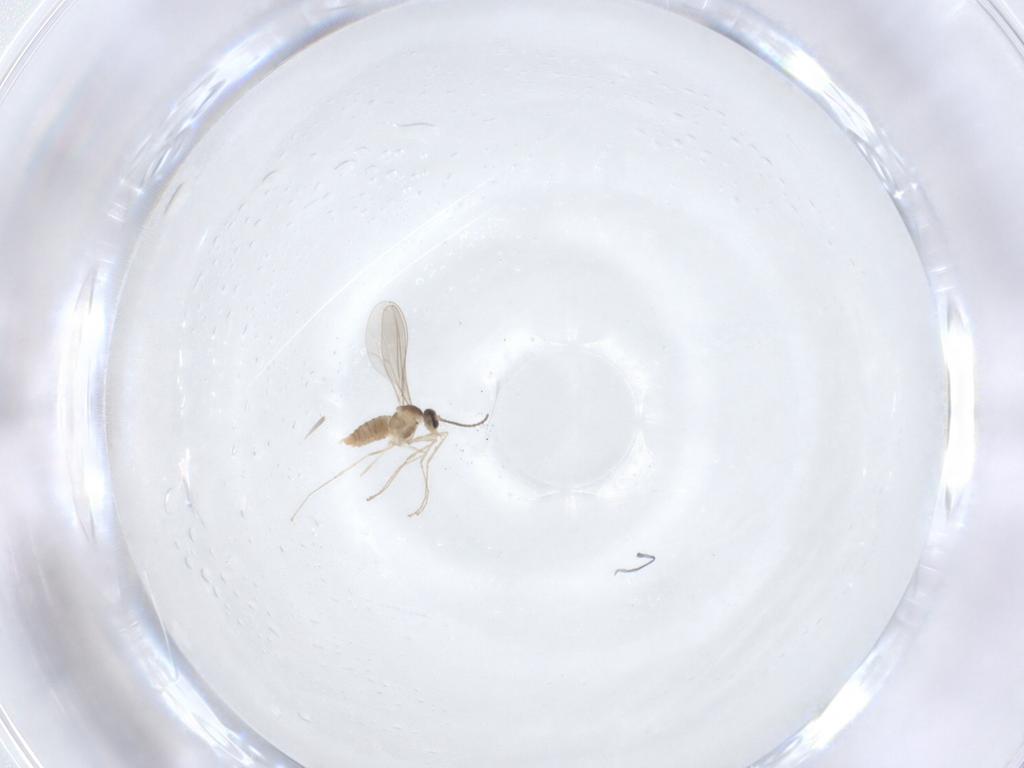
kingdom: Animalia
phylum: Arthropoda
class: Insecta
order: Diptera
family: Cecidomyiidae
